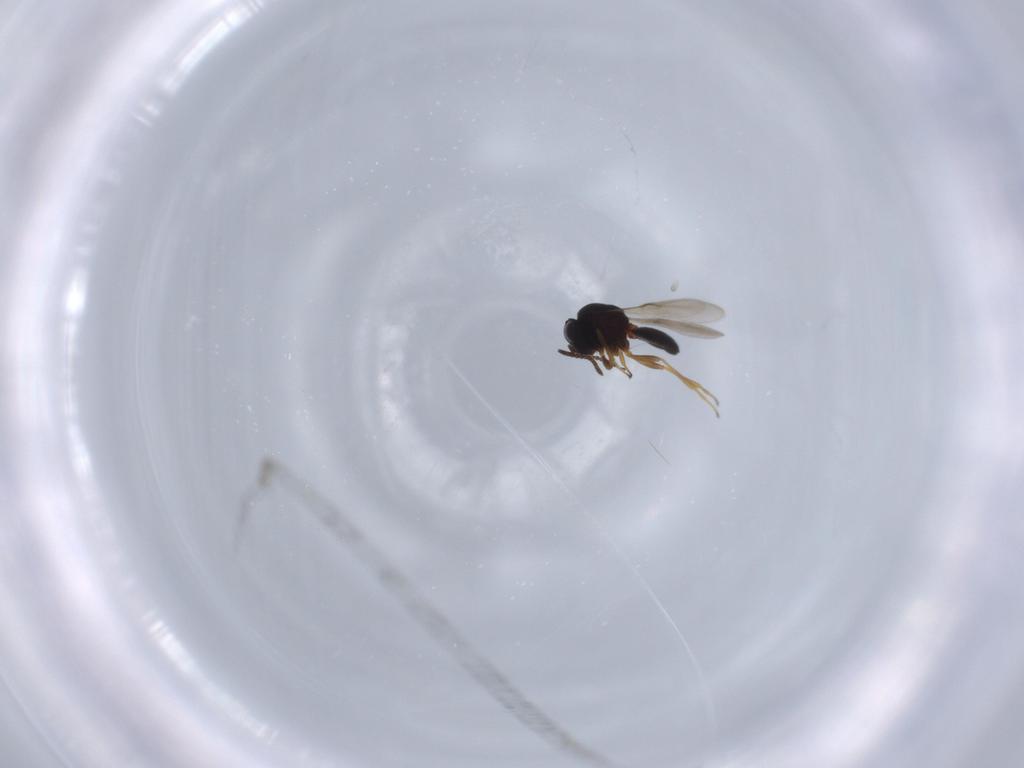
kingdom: Animalia
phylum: Arthropoda
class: Insecta
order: Hymenoptera
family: Scelionidae
